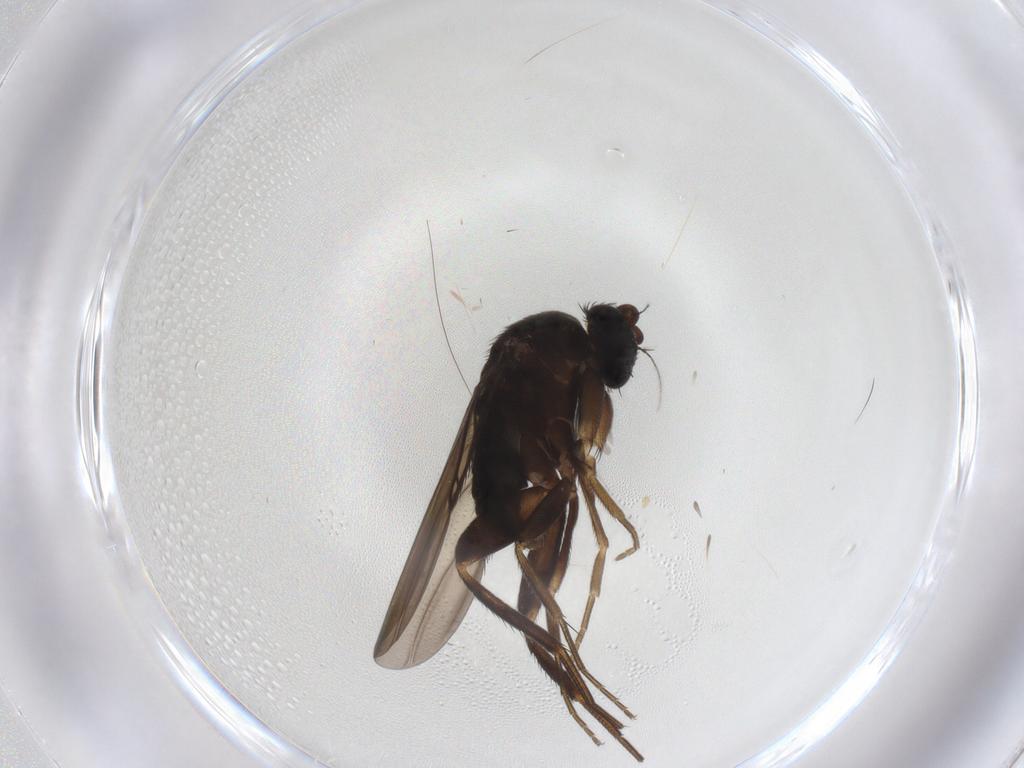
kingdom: Animalia
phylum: Arthropoda
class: Insecta
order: Diptera
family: Phoridae
